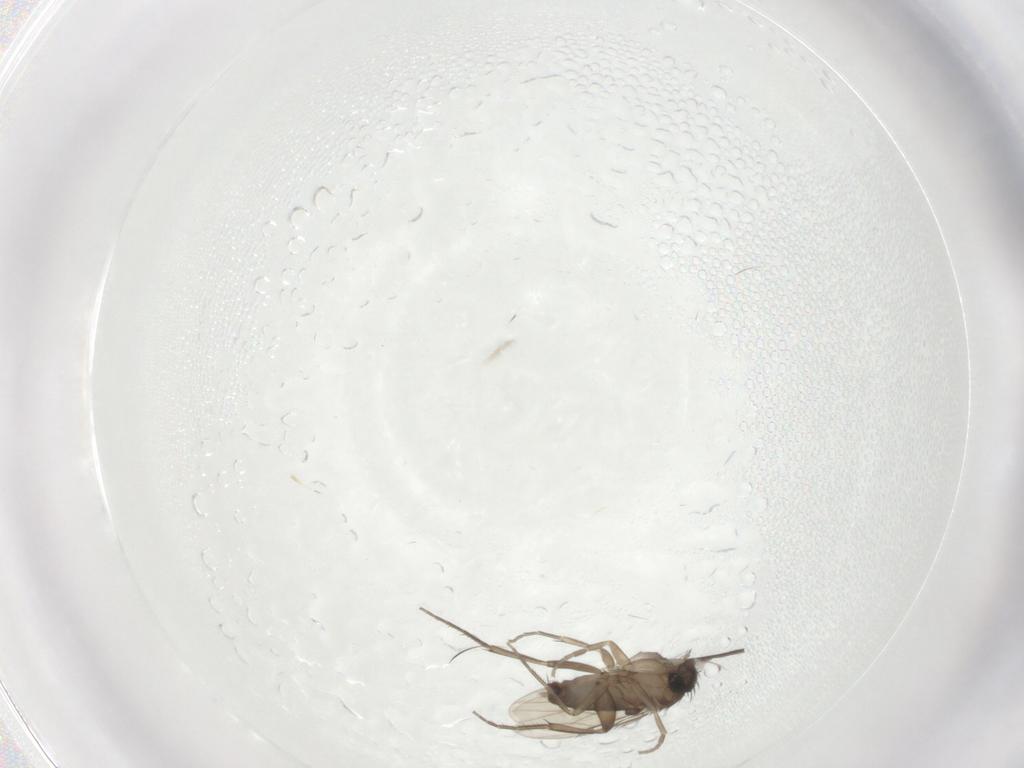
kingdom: Animalia
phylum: Arthropoda
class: Insecta
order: Diptera
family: Phoridae
